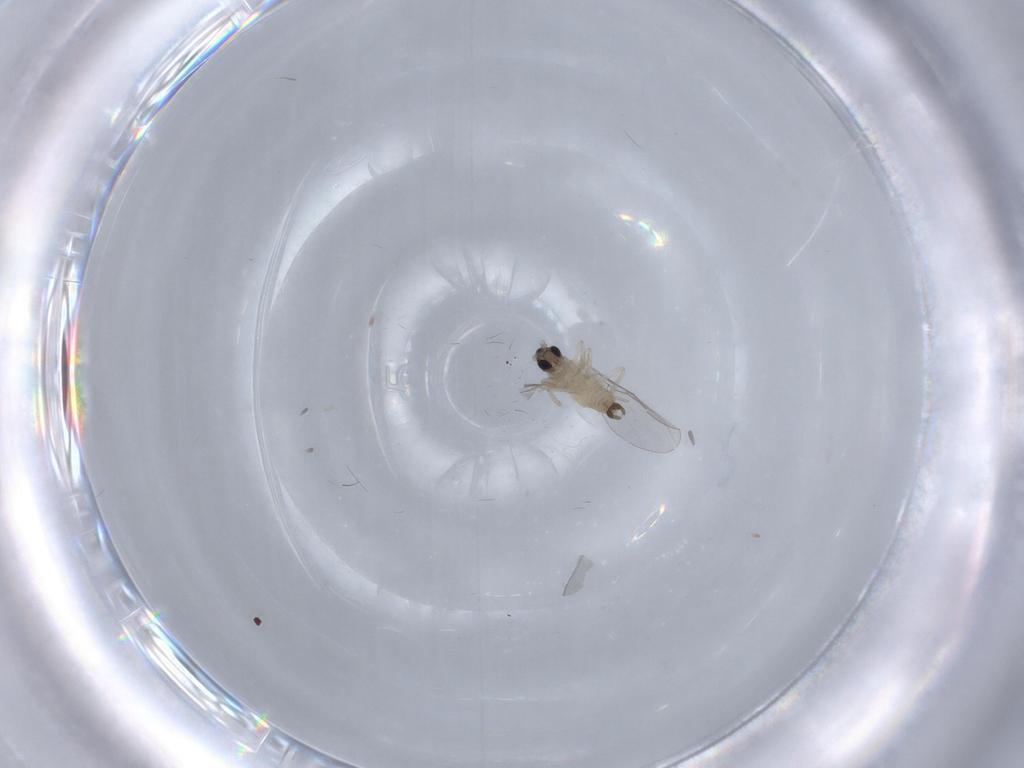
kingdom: Animalia
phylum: Arthropoda
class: Insecta
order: Diptera
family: Cecidomyiidae
